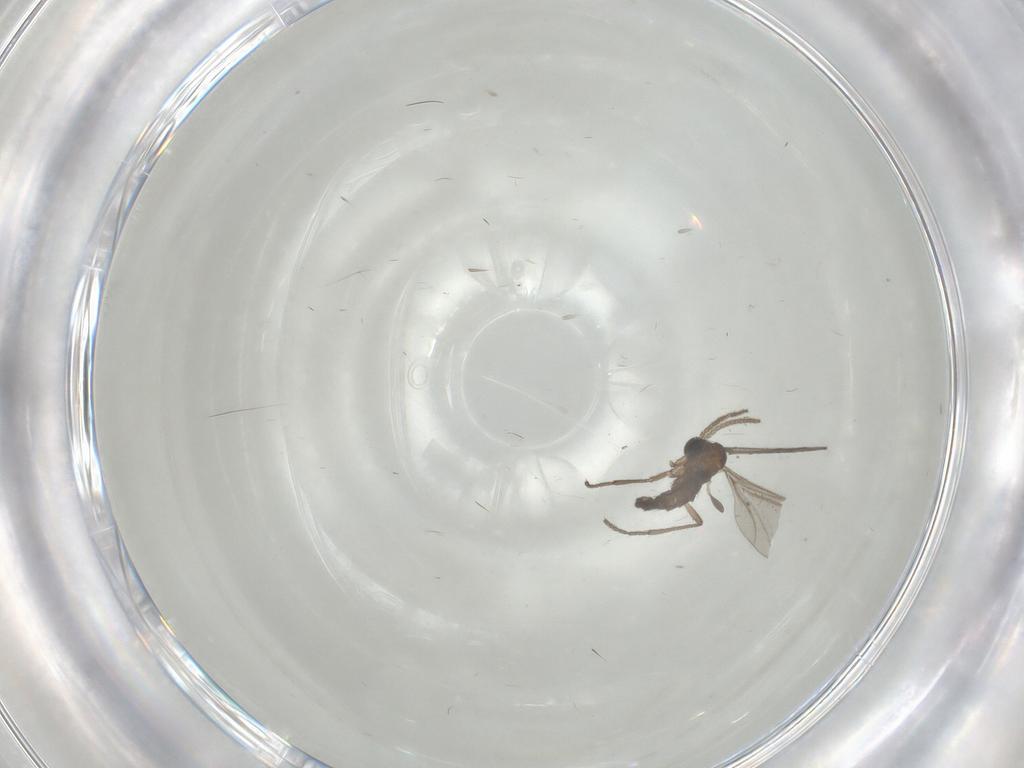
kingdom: Animalia
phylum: Arthropoda
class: Insecta
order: Diptera
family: Sciaridae
